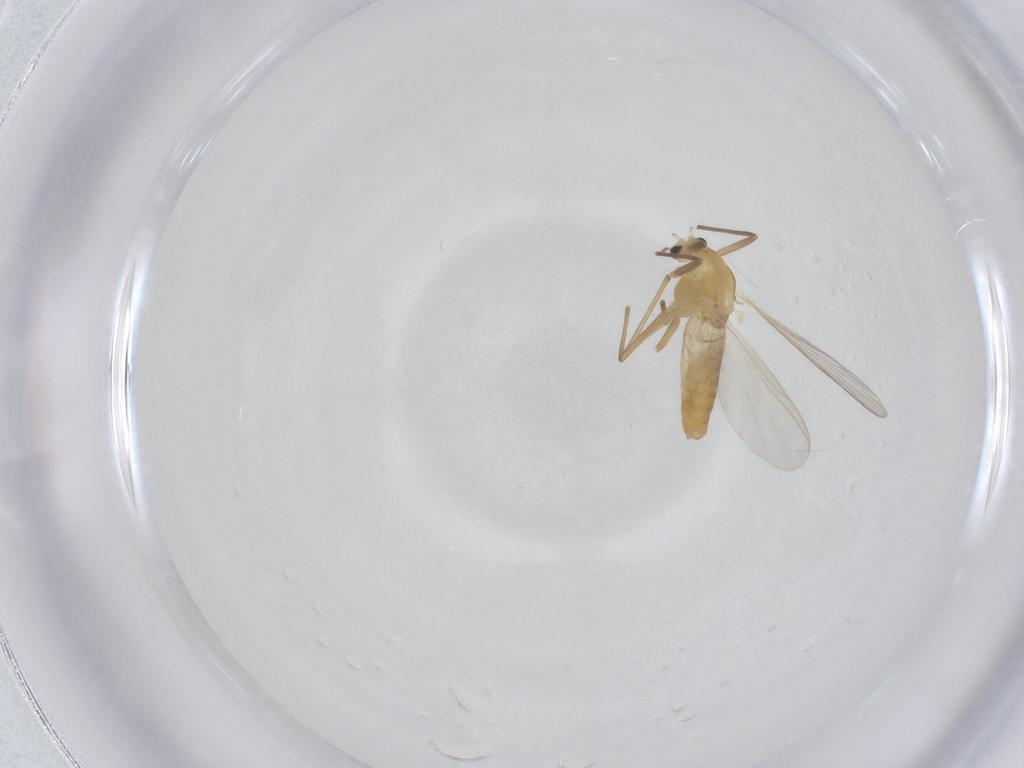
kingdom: Animalia
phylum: Arthropoda
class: Insecta
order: Diptera
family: Chironomidae
